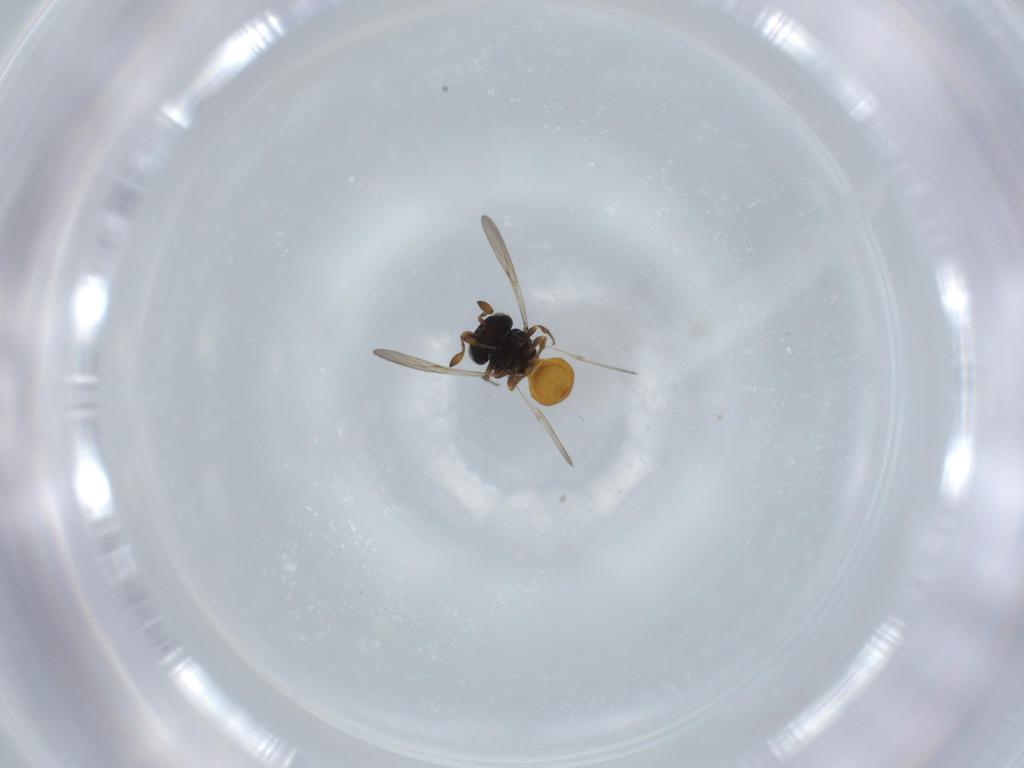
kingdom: Animalia
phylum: Arthropoda
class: Insecta
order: Hymenoptera
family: Scelionidae
